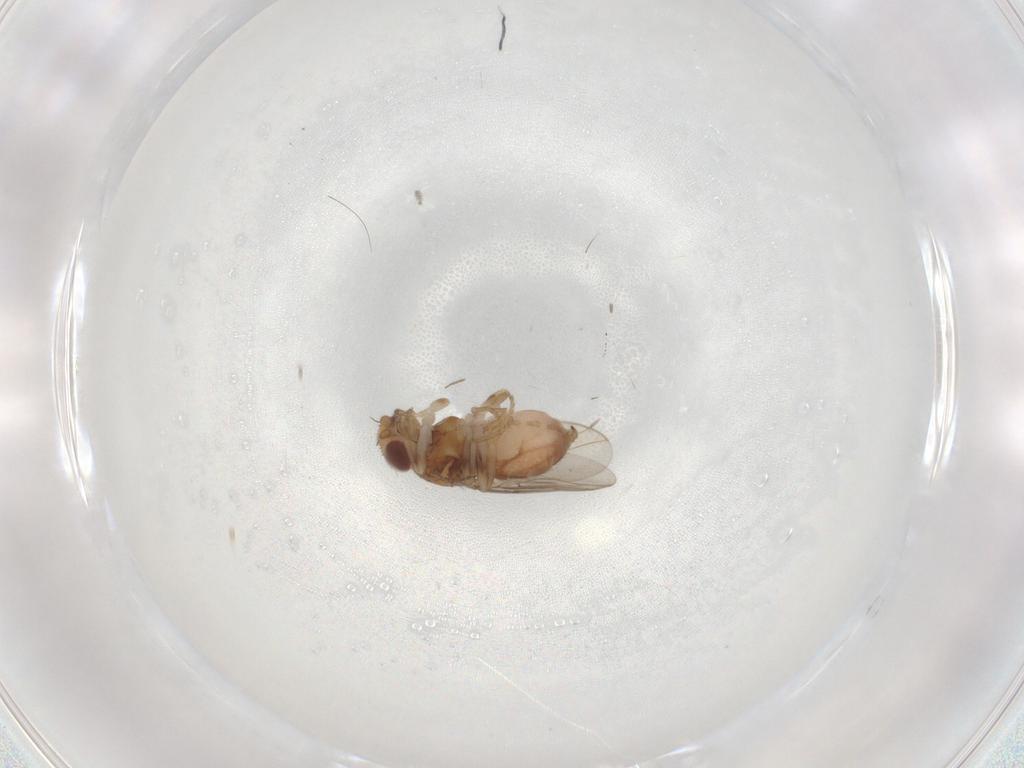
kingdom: Animalia
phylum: Arthropoda
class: Insecta
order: Diptera
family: Chloropidae
